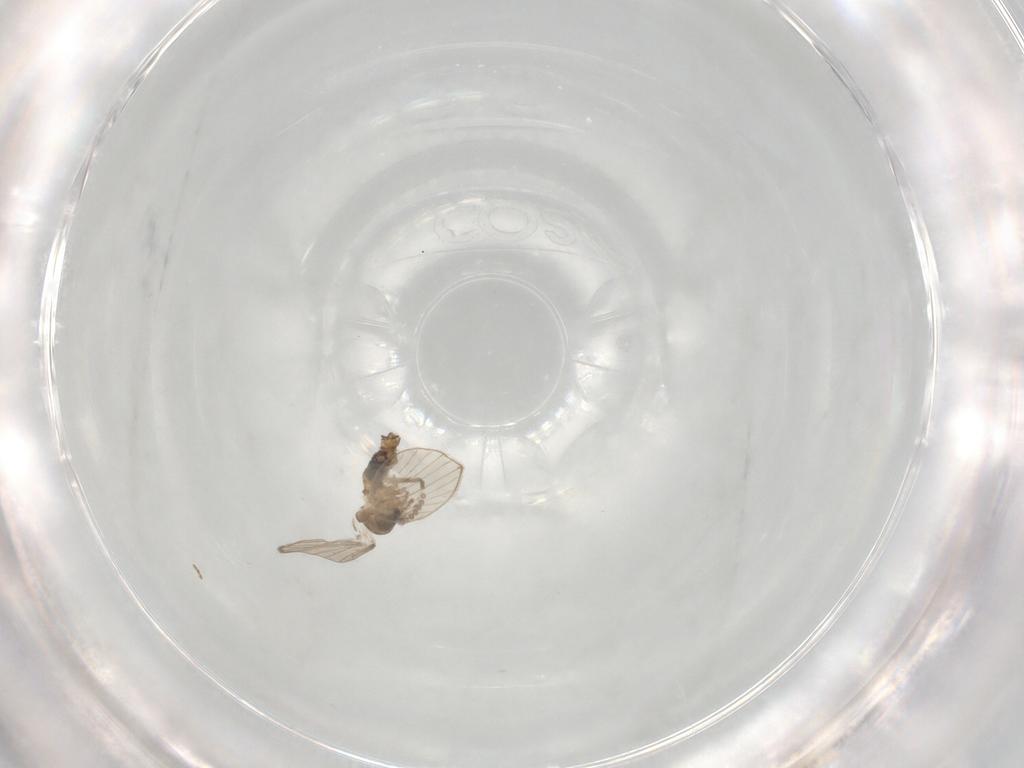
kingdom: Animalia
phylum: Arthropoda
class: Insecta
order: Diptera
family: Psychodidae
